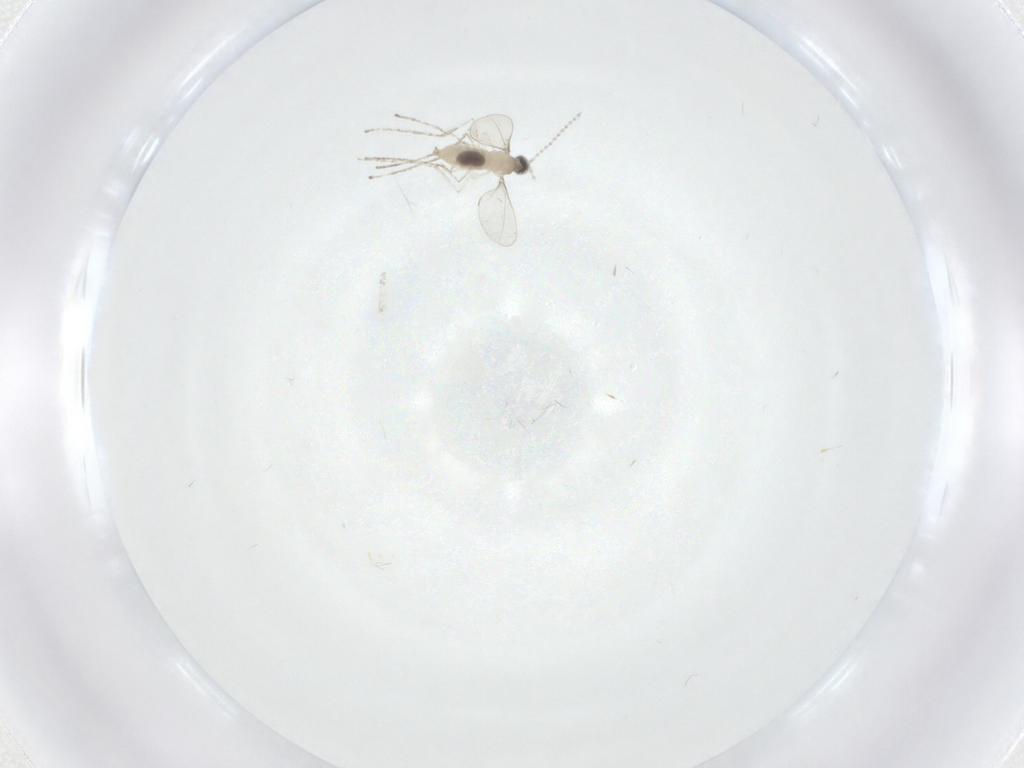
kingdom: Animalia
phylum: Arthropoda
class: Insecta
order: Diptera
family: Cecidomyiidae
